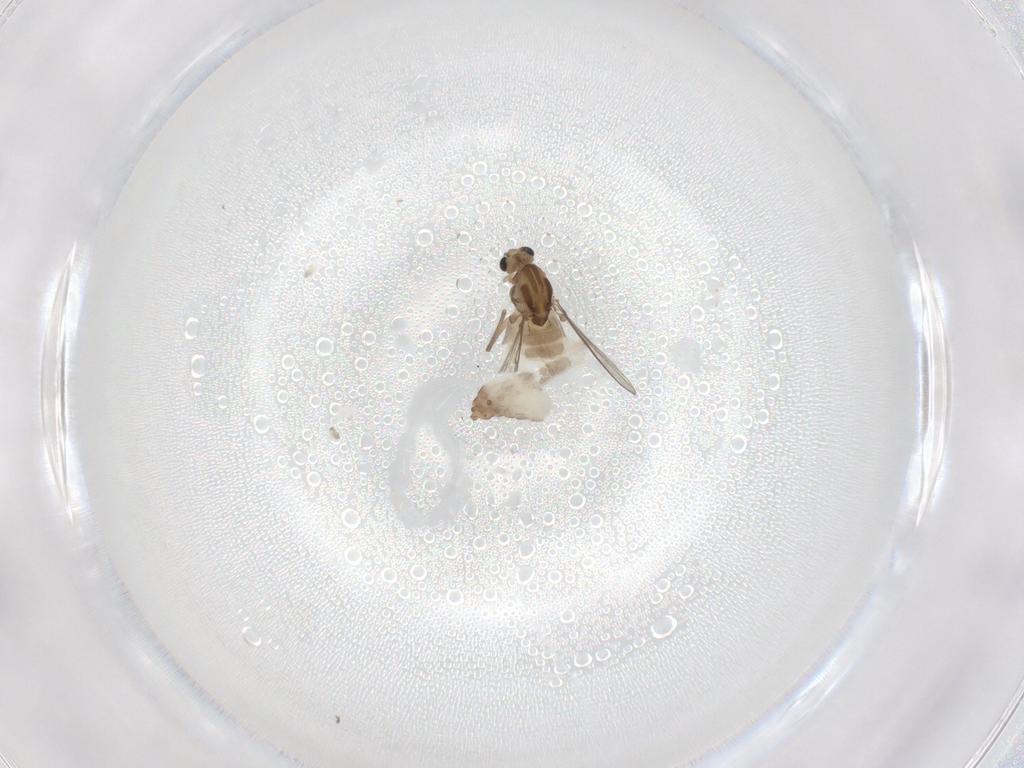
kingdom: Animalia
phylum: Arthropoda
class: Insecta
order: Diptera
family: Chironomidae
